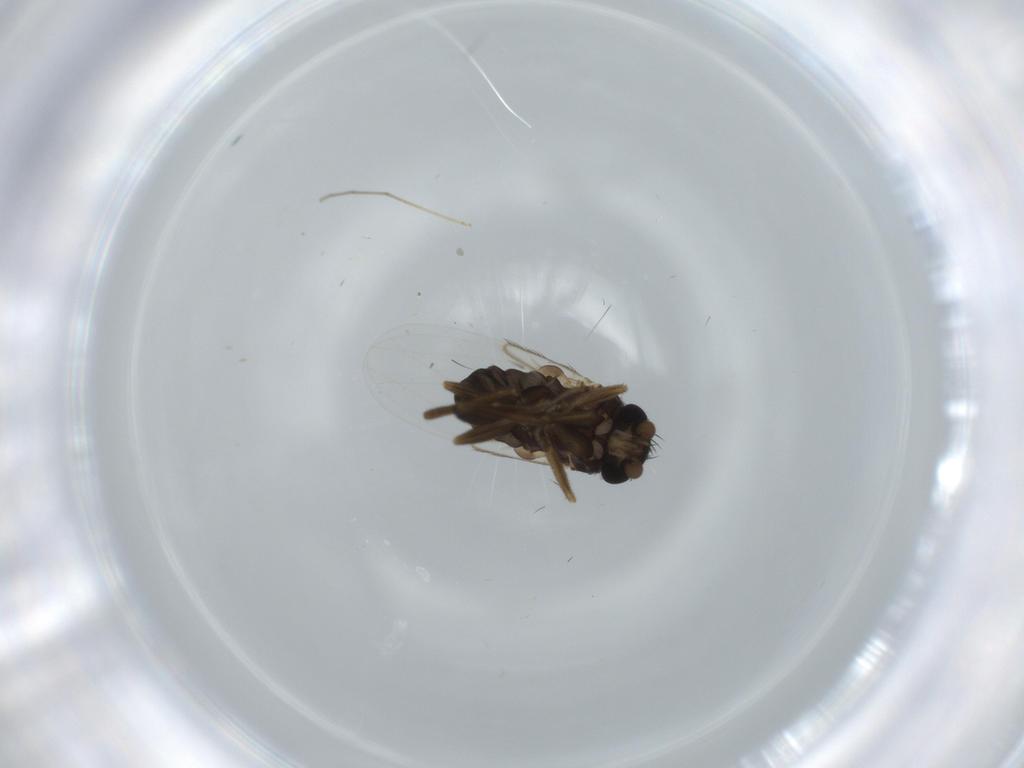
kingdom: Animalia
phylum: Arthropoda
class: Insecta
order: Diptera
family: Phoridae
